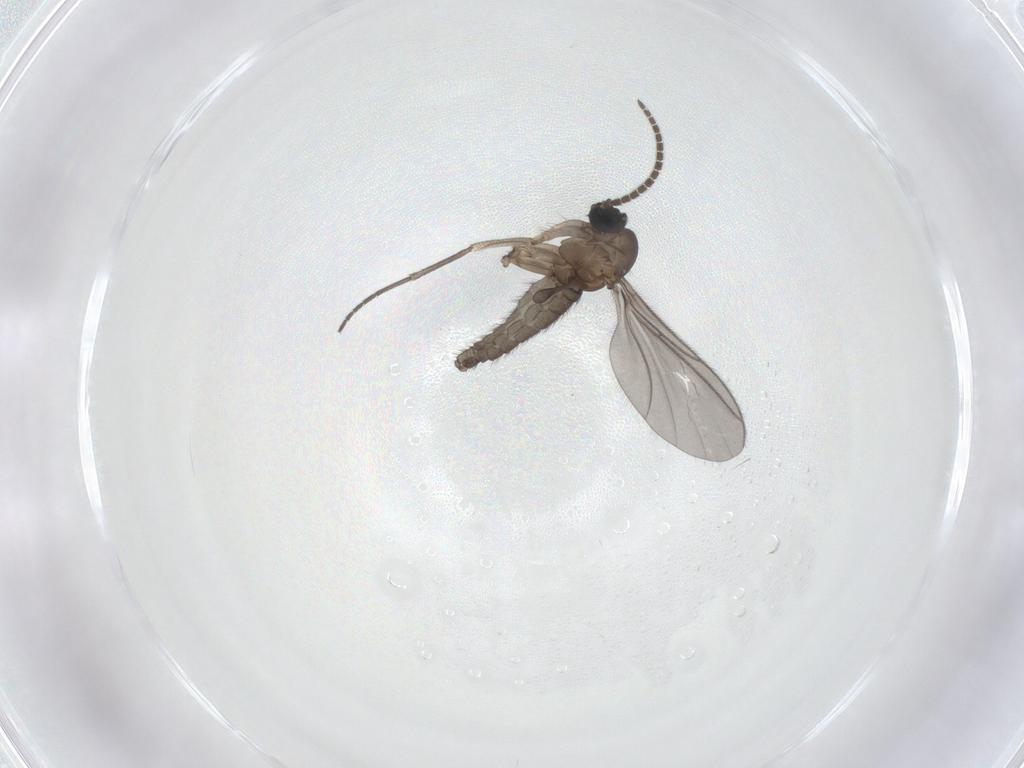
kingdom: Animalia
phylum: Arthropoda
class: Insecta
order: Diptera
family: Sciaridae
